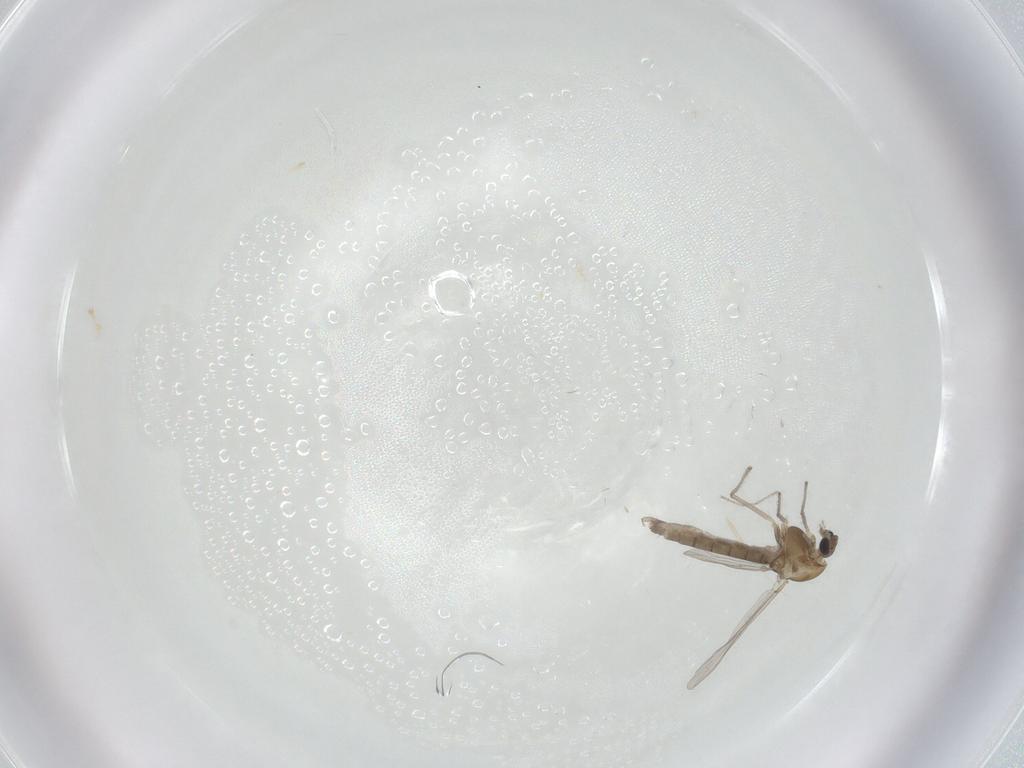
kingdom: Animalia
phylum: Arthropoda
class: Insecta
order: Diptera
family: Chironomidae
